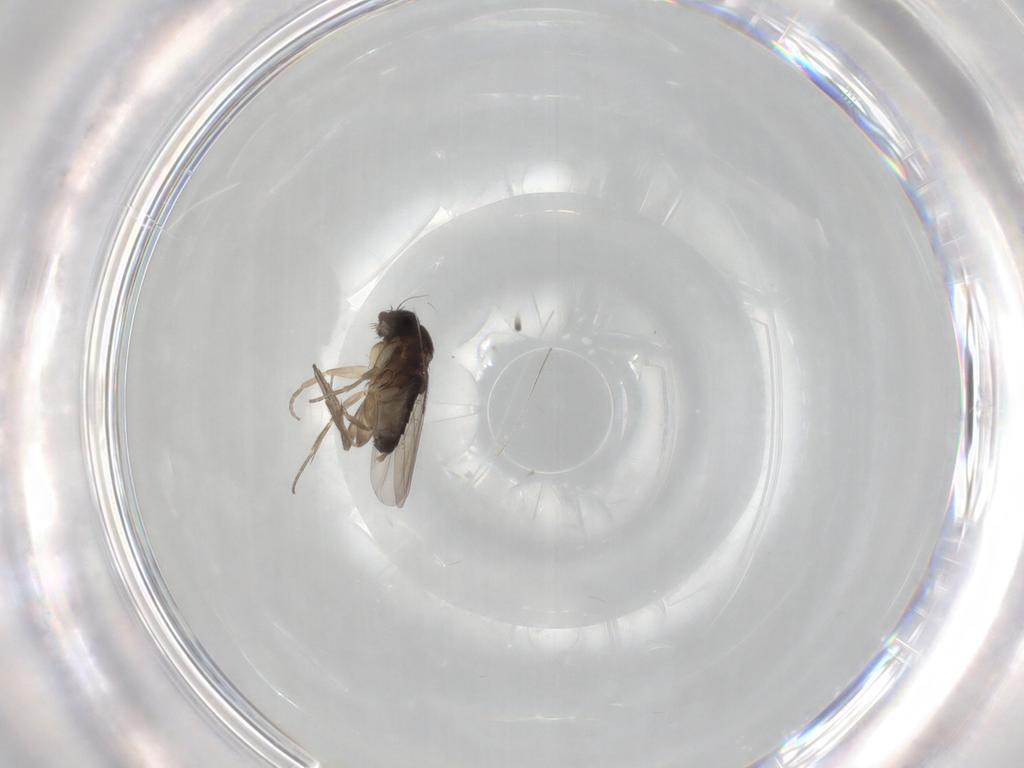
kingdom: Animalia
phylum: Arthropoda
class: Insecta
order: Diptera
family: Phoridae
